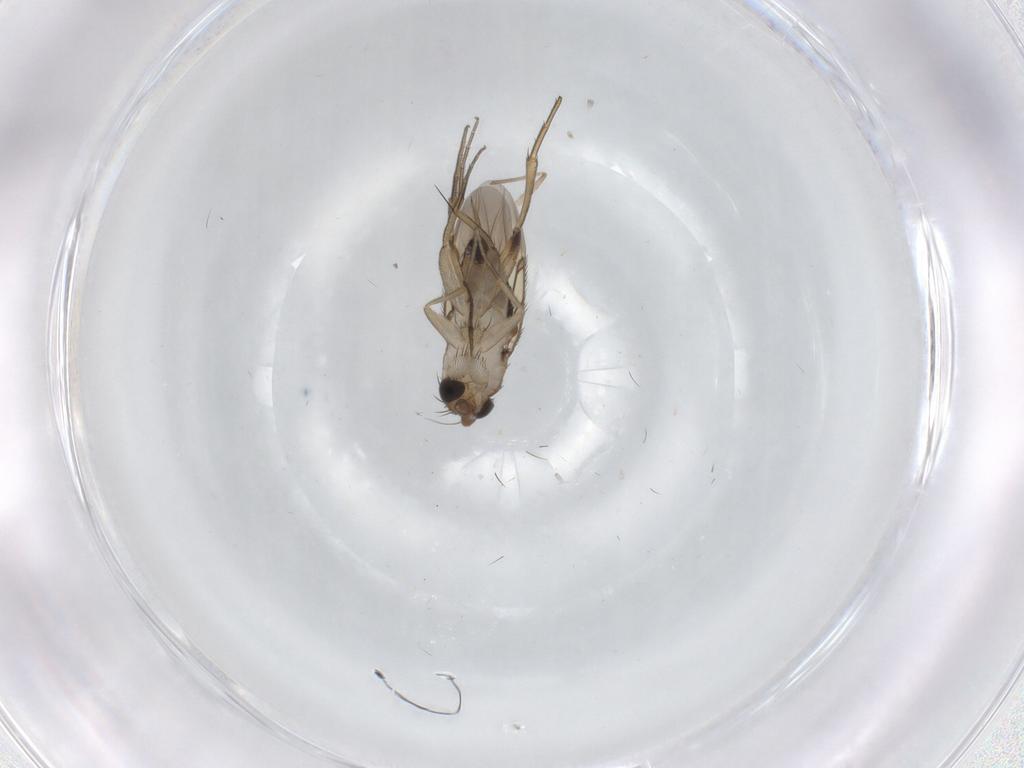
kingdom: Animalia
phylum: Arthropoda
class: Insecta
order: Diptera
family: Phoridae
